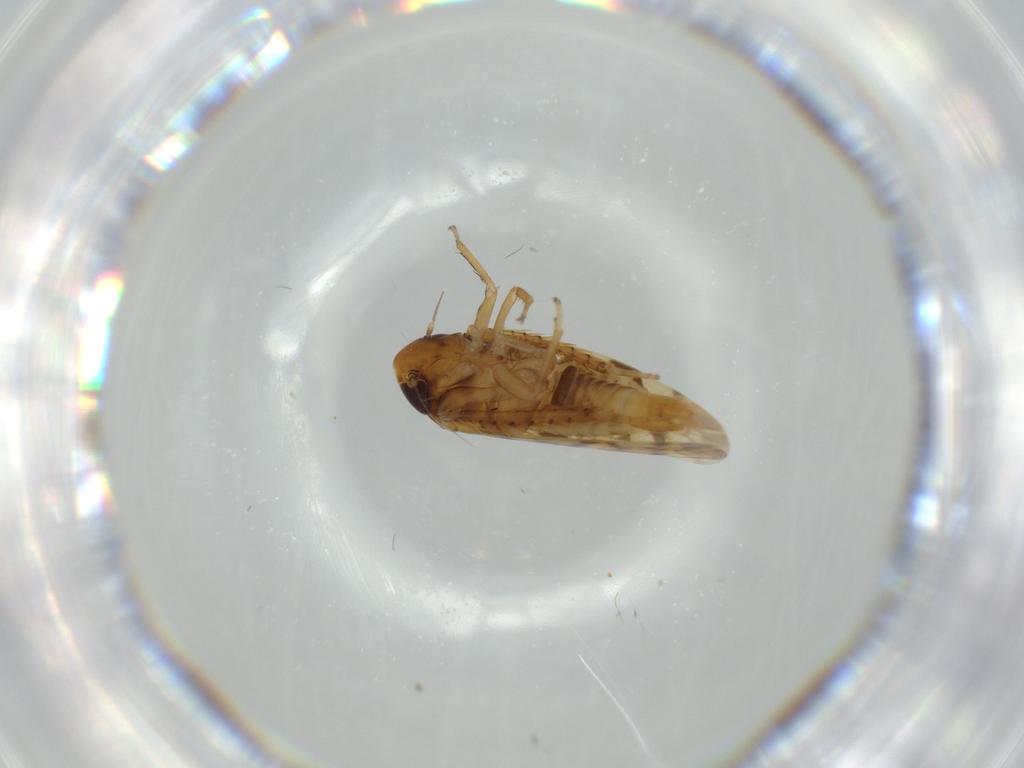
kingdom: Animalia
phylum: Arthropoda
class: Insecta
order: Hemiptera
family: Cicadellidae
